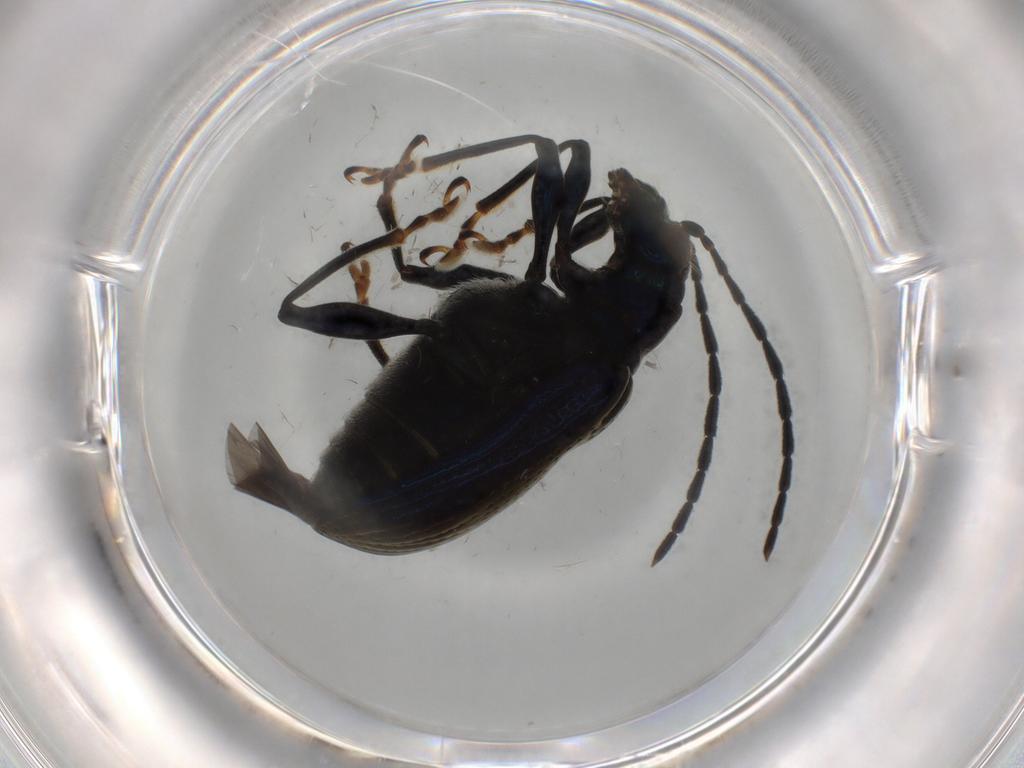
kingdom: Animalia
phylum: Arthropoda
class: Insecta
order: Coleoptera
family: Chrysomelidae
